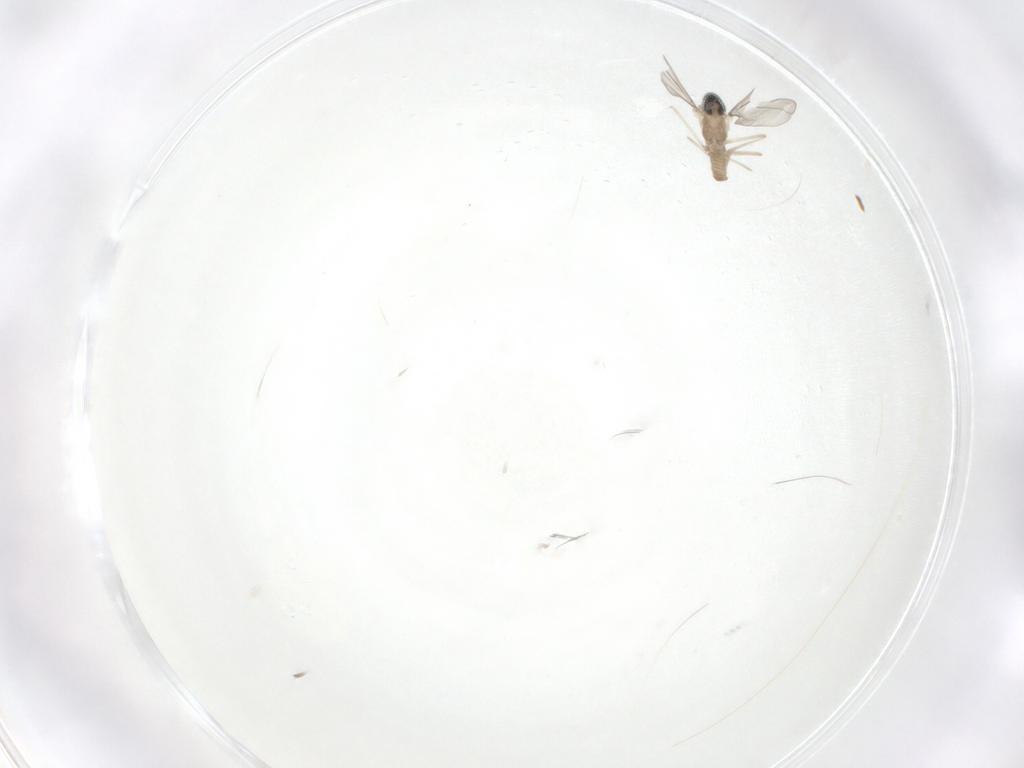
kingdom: Animalia
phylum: Arthropoda
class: Insecta
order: Diptera
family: Cecidomyiidae
